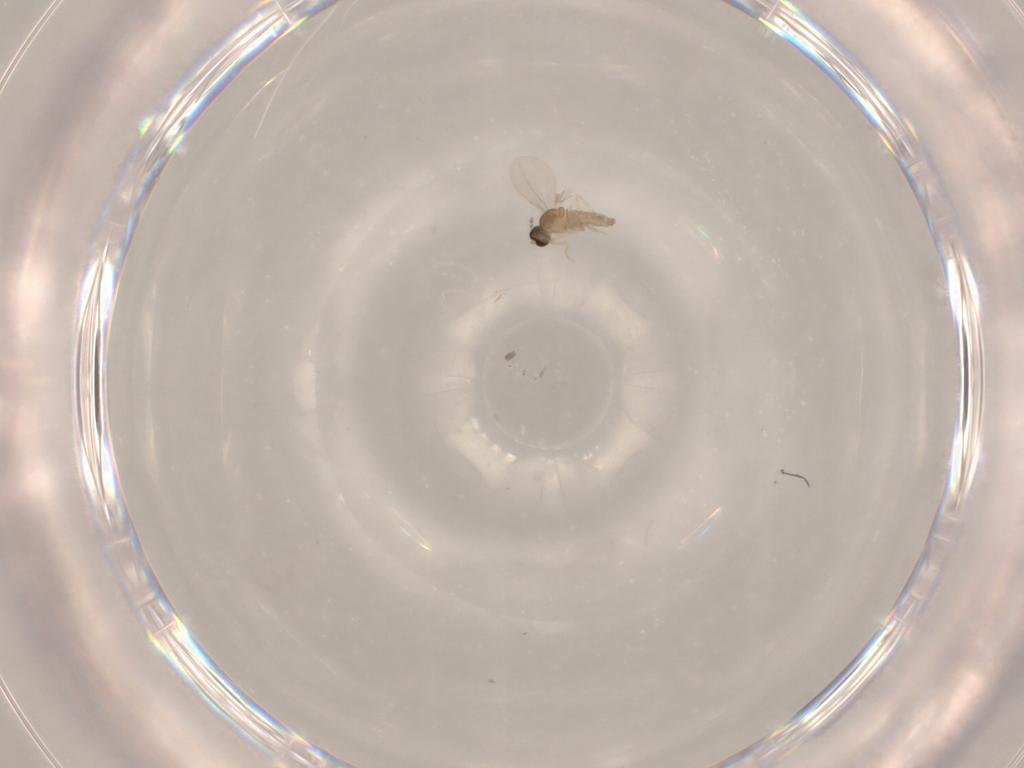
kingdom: Animalia
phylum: Arthropoda
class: Insecta
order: Diptera
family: Cecidomyiidae
